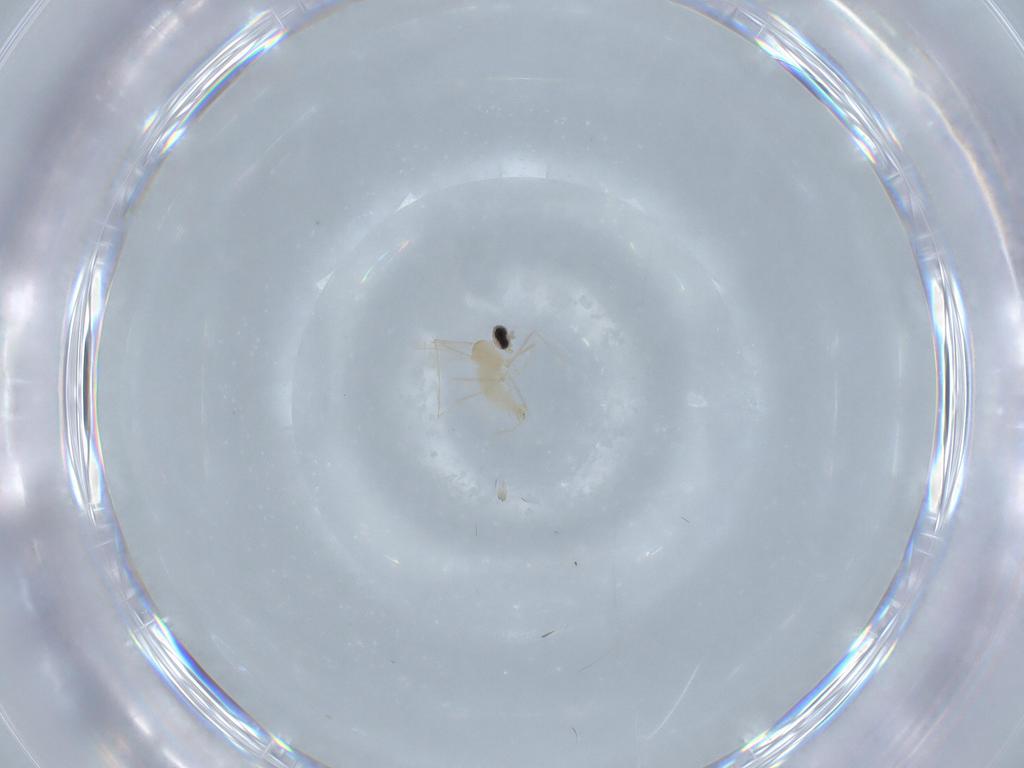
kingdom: Animalia
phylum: Arthropoda
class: Insecta
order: Diptera
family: Cecidomyiidae
